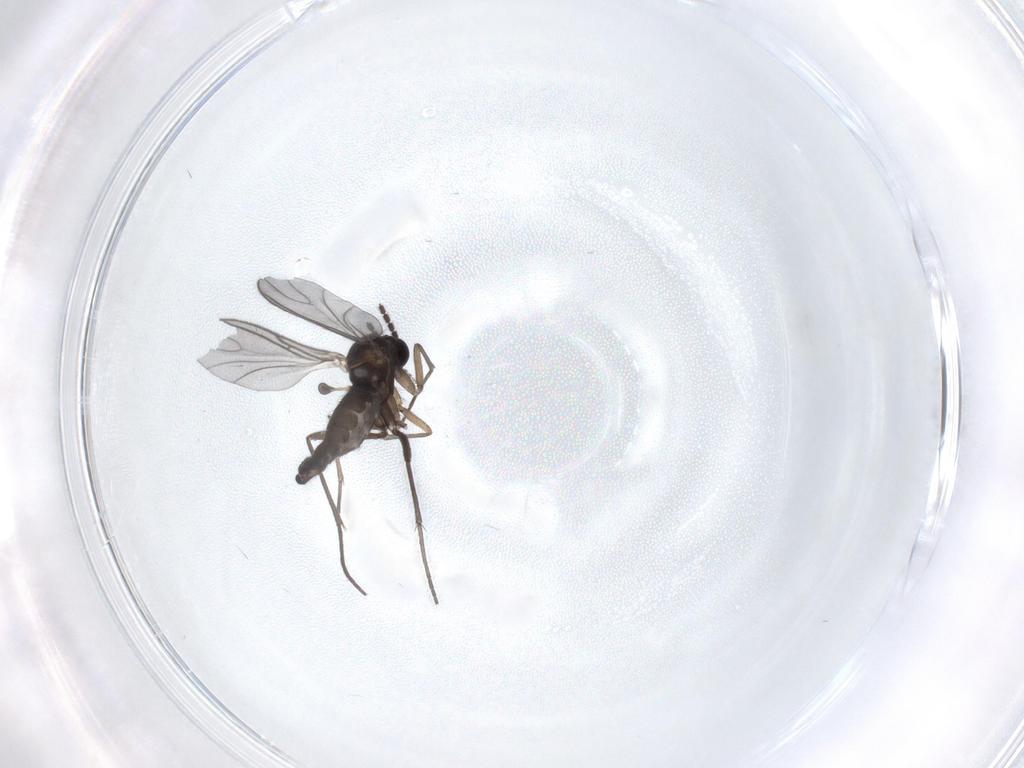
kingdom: Animalia
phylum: Arthropoda
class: Insecta
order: Diptera
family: Sciaridae
